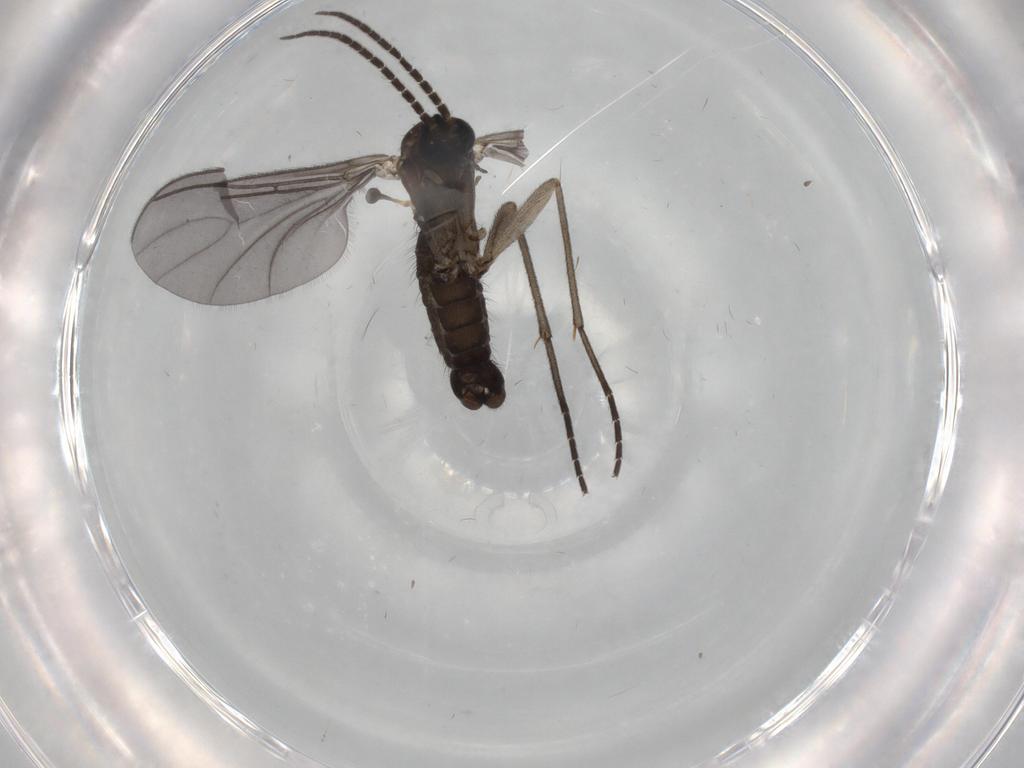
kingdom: Animalia
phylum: Arthropoda
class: Insecta
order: Diptera
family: Sciaridae
